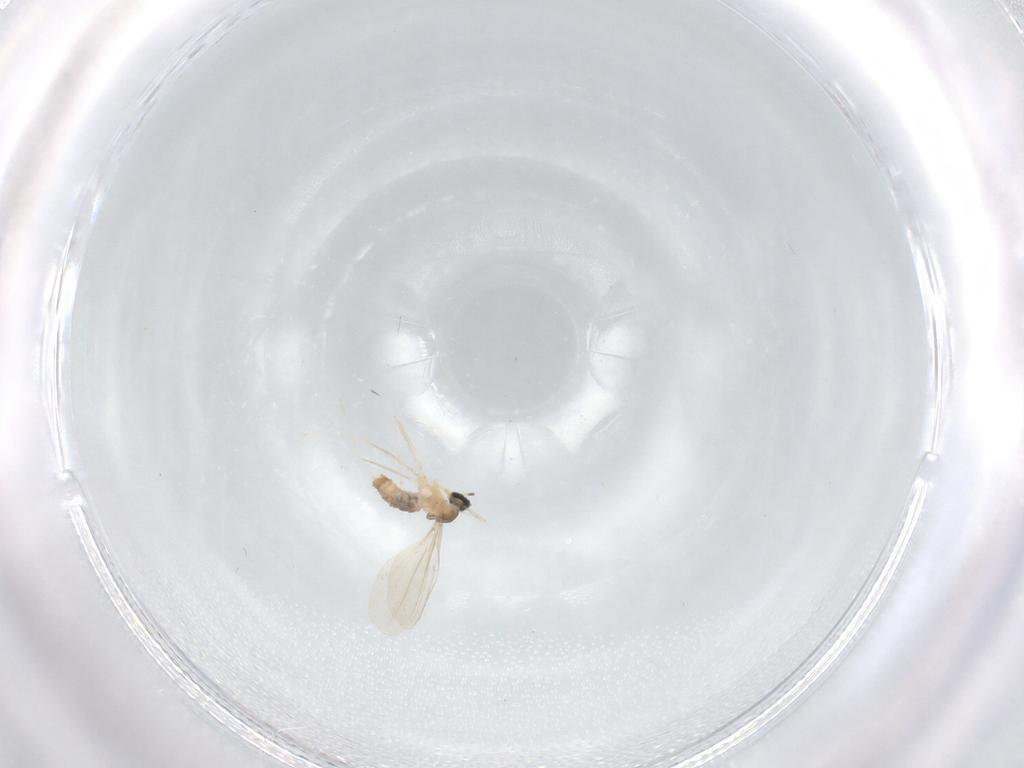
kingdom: Animalia
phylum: Arthropoda
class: Insecta
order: Diptera
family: Cecidomyiidae
